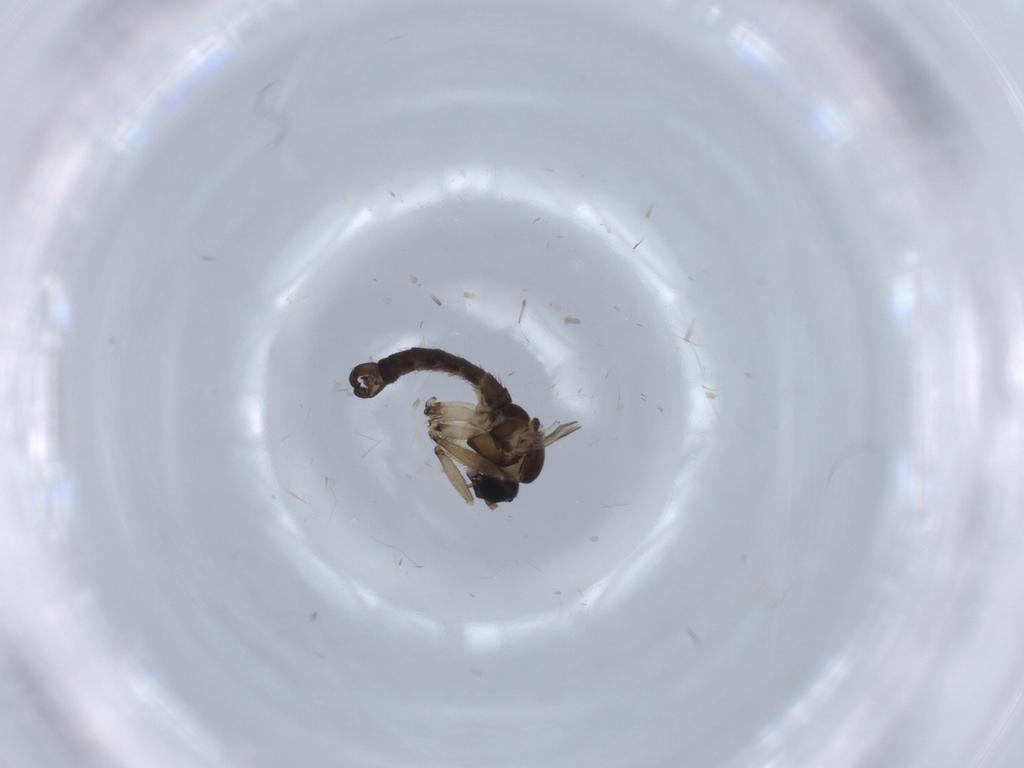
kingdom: Animalia
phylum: Arthropoda
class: Insecta
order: Diptera
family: Sciaridae
